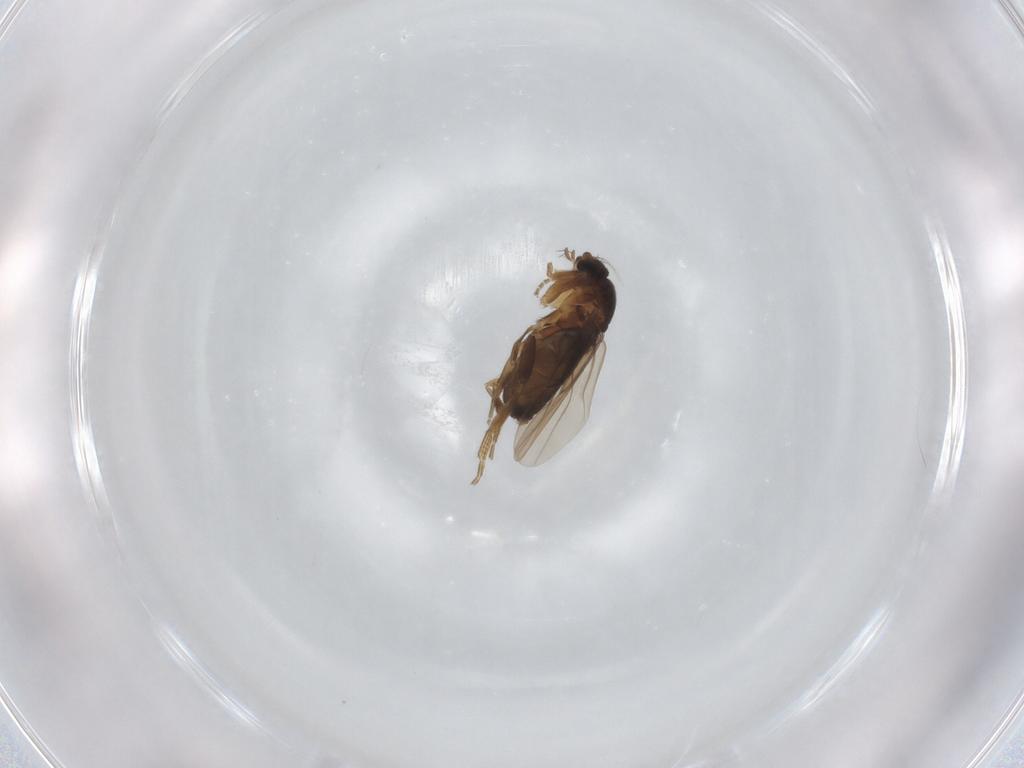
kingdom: Animalia
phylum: Arthropoda
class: Insecta
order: Diptera
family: Phoridae
